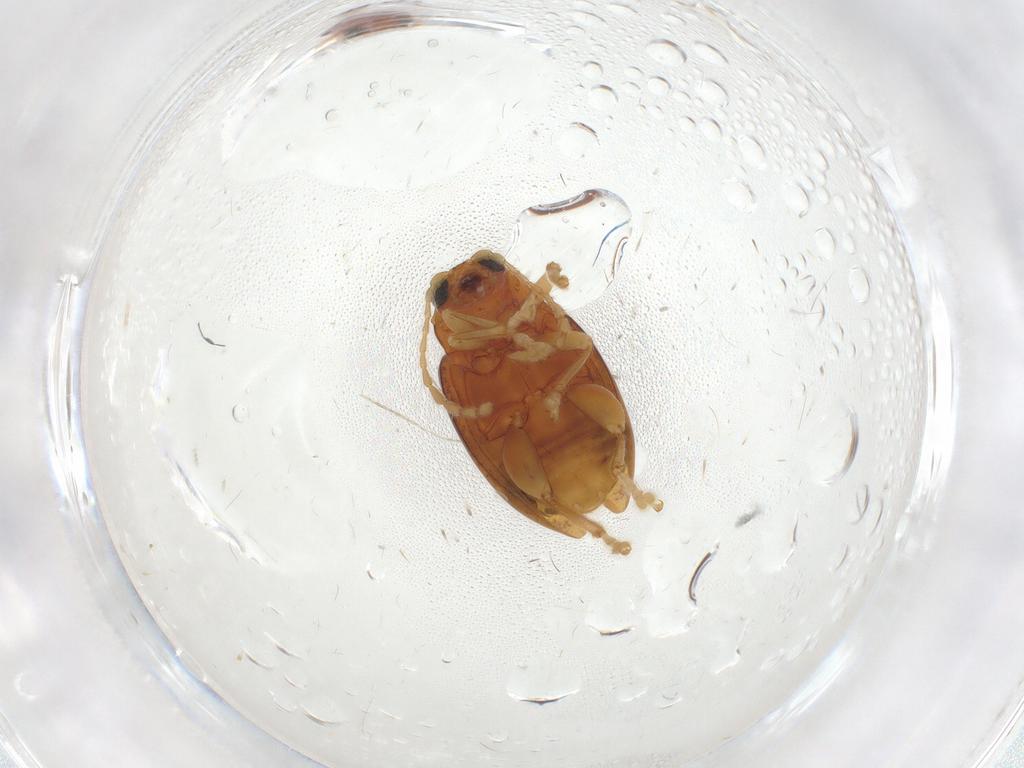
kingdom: Animalia
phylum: Arthropoda
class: Insecta
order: Coleoptera
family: Chrysomelidae
